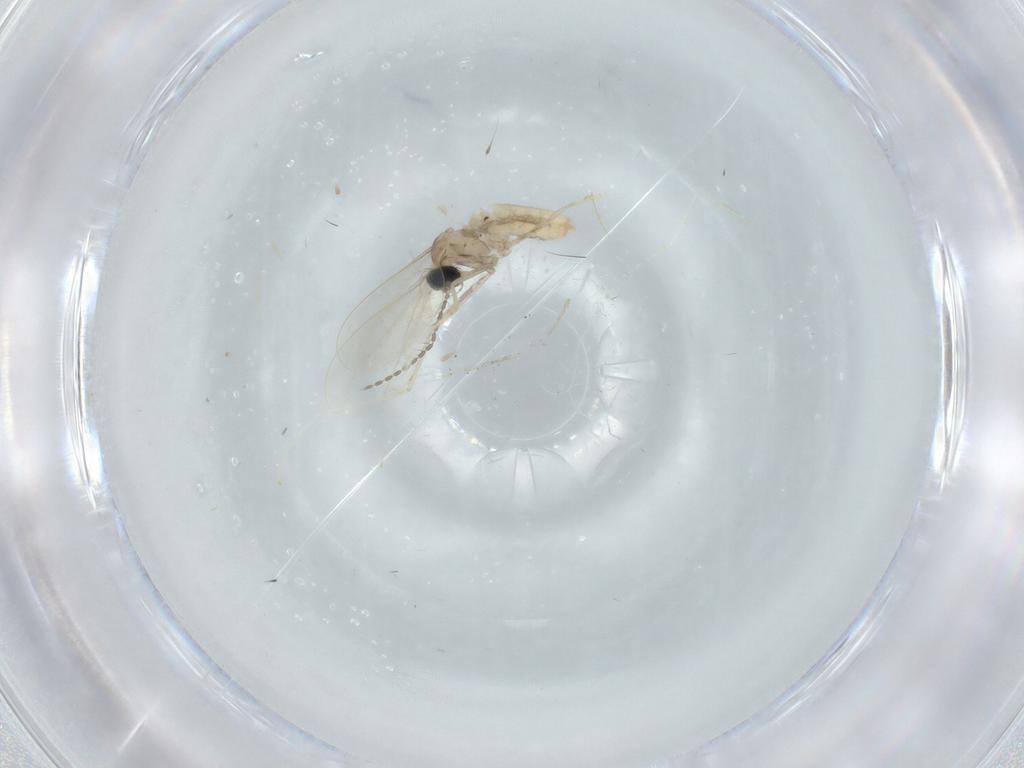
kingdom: Animalia
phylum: Arthropoda
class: Insecta
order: Diptera
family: Cecidomyiidae
